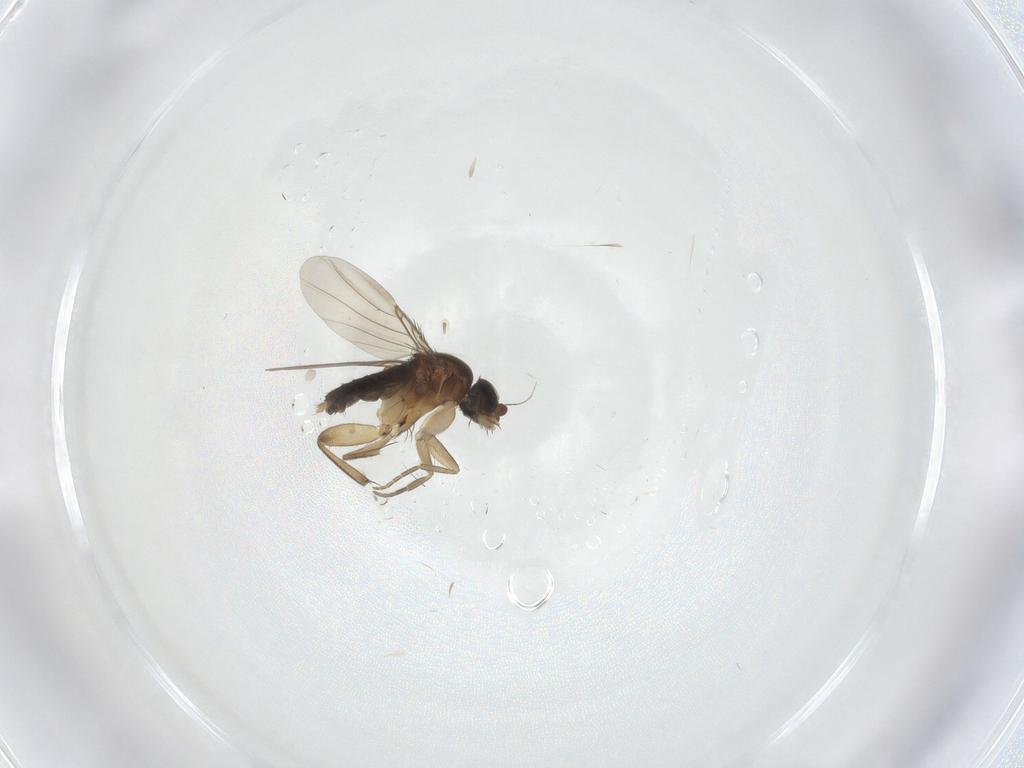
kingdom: Animalia
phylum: Arthropoda
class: Insecta
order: Diptera
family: Phoridae
